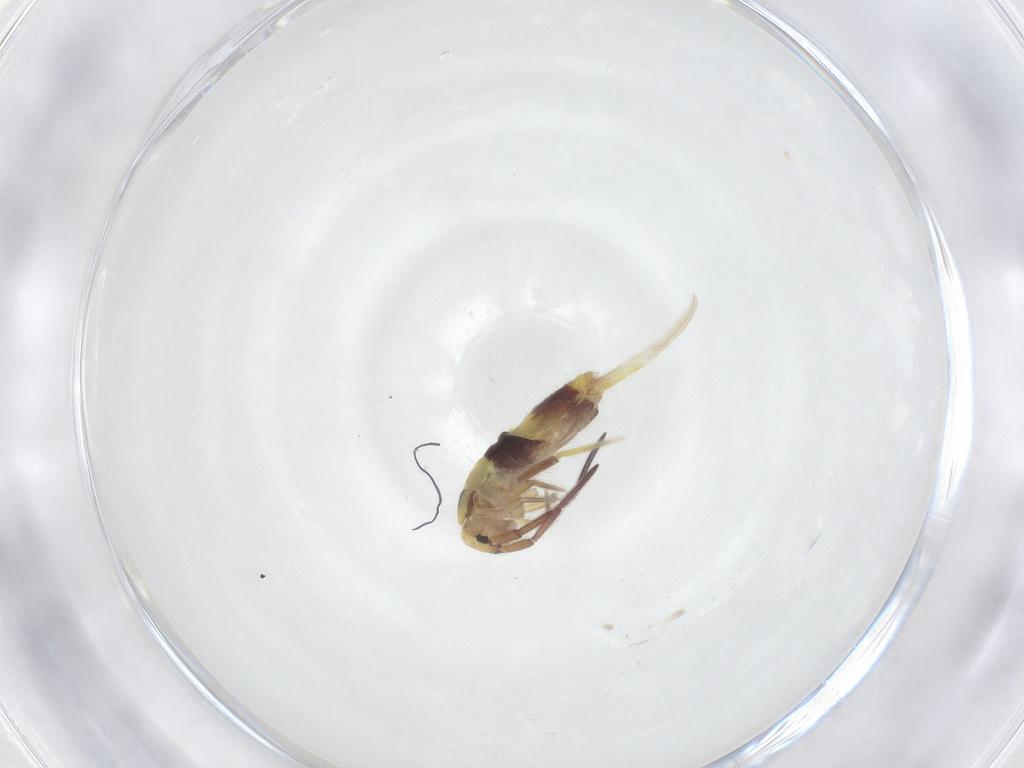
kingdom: Animalia
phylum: Arthropoda
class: Collembola
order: Entomobryomorpha
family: Entomobryidae
